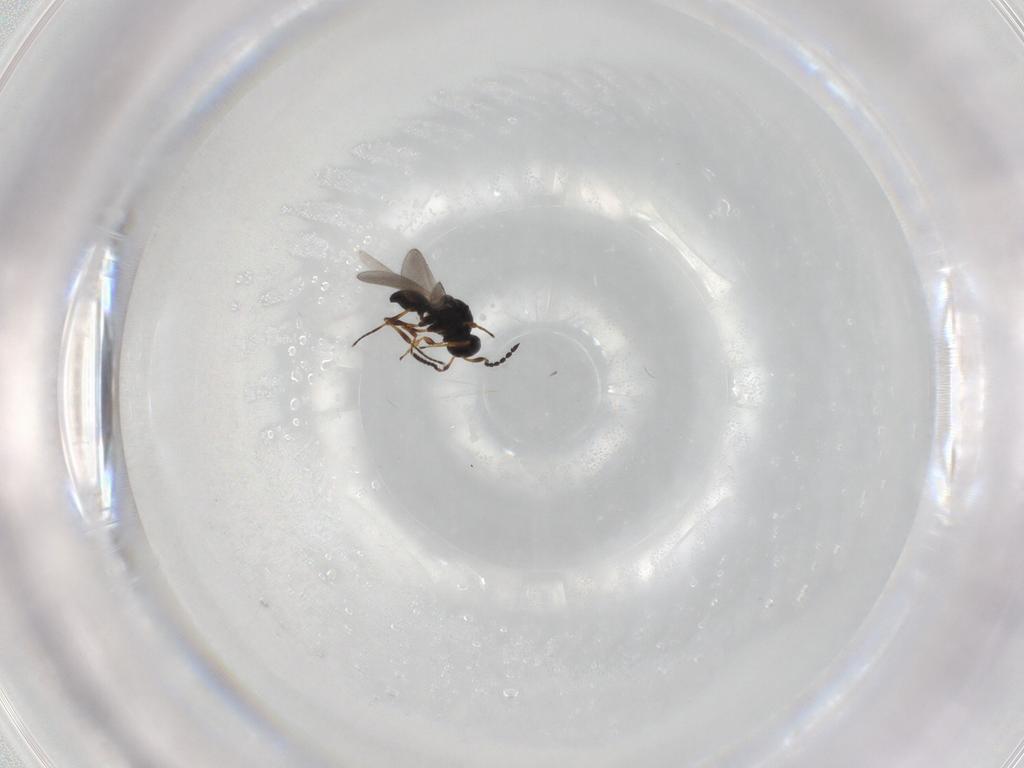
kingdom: Animalia
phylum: Arthropoda
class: Insecta
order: Hymenoptera
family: Platygastridae
